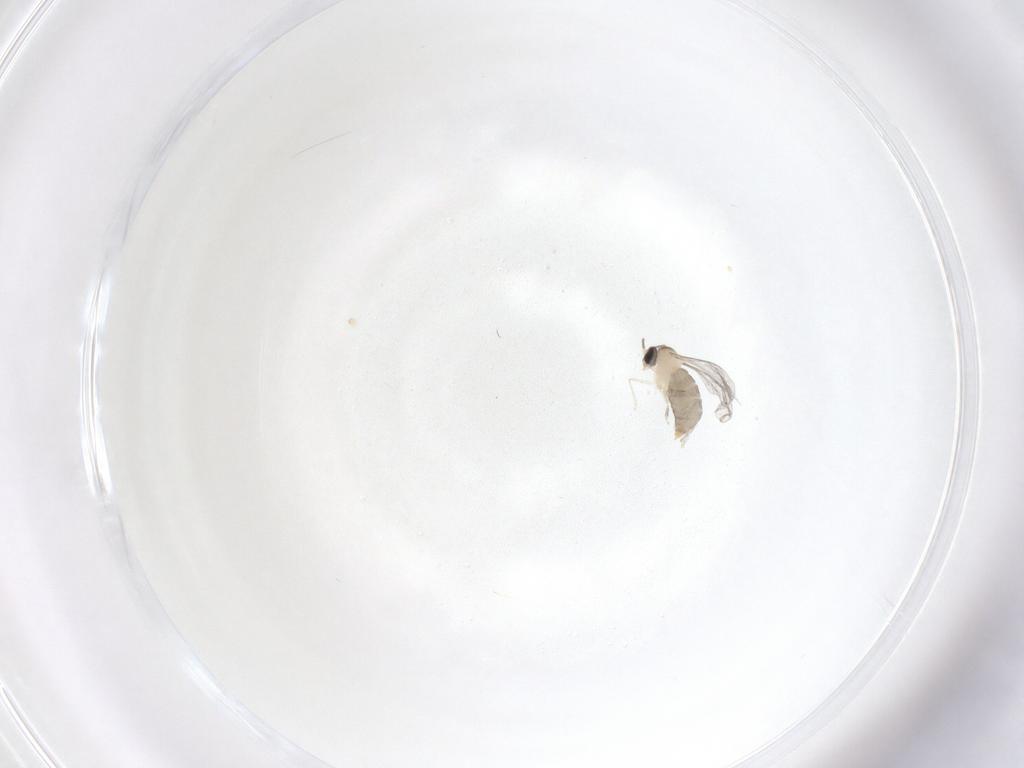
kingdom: Animalia
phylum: Arthropoda
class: Insecta
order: Diptera
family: Cecidomyiidae
